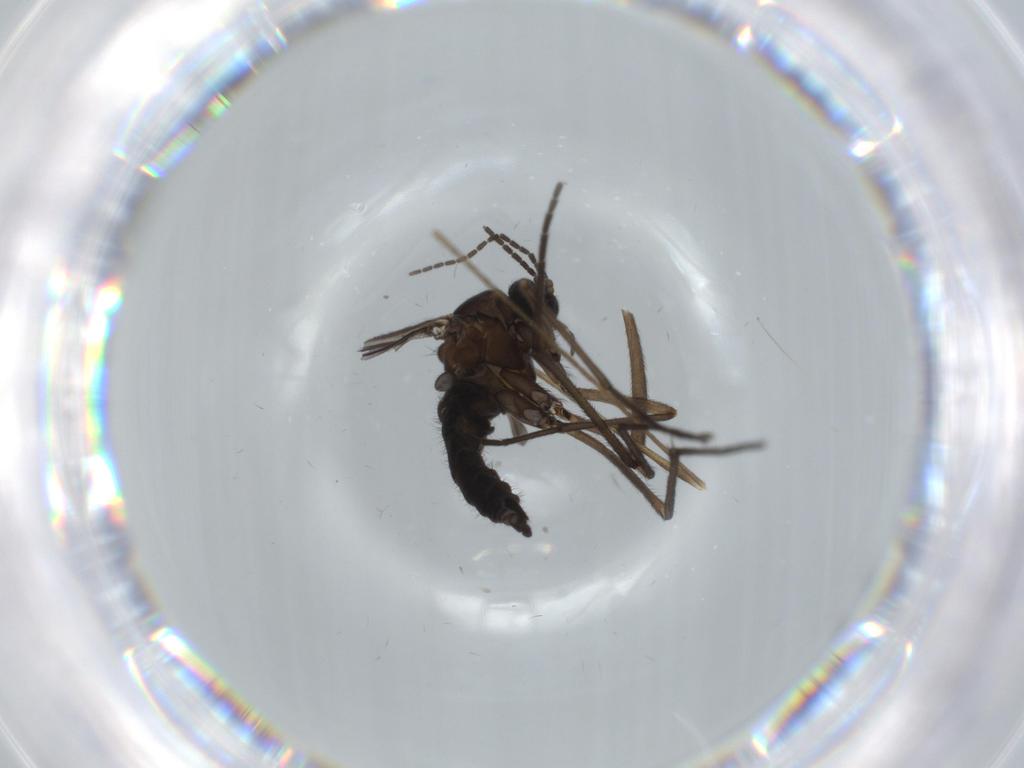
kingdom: Animalia
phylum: Arthropoda
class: Insecta
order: Diptera
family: Sciaridae
